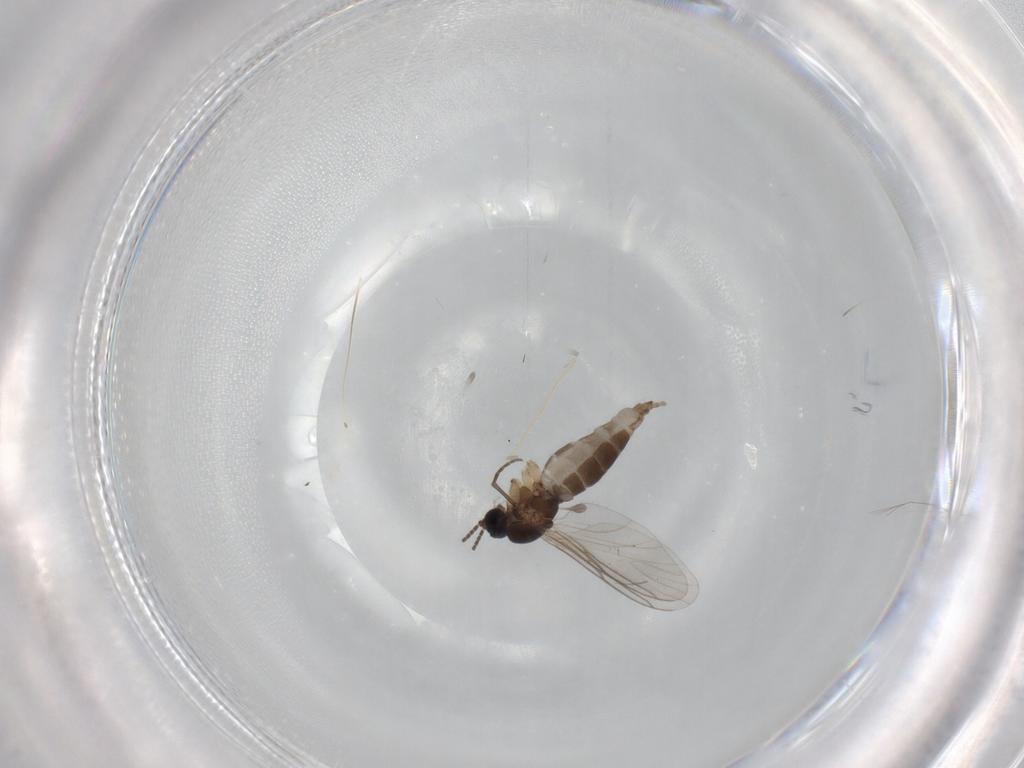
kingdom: Animalia
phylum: Arthropoda
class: Insecta
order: Diptera
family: Sciaridae
